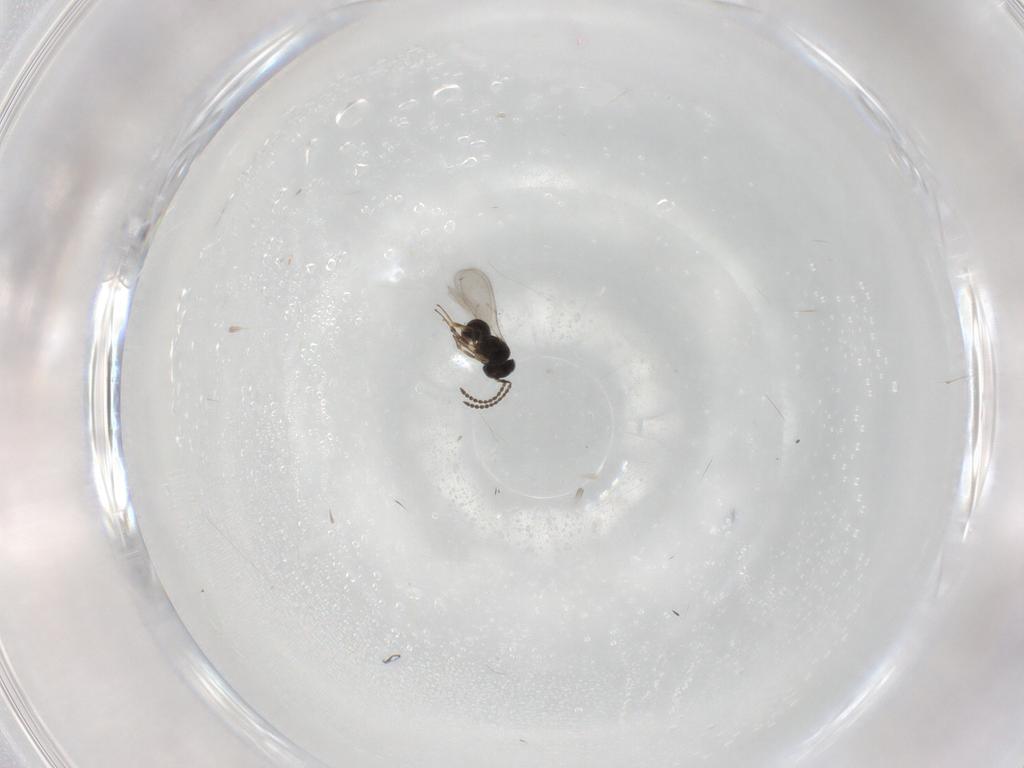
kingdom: Animalia
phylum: Arthropoda
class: Insecta
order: Hymenoptera
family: Scelionidae
